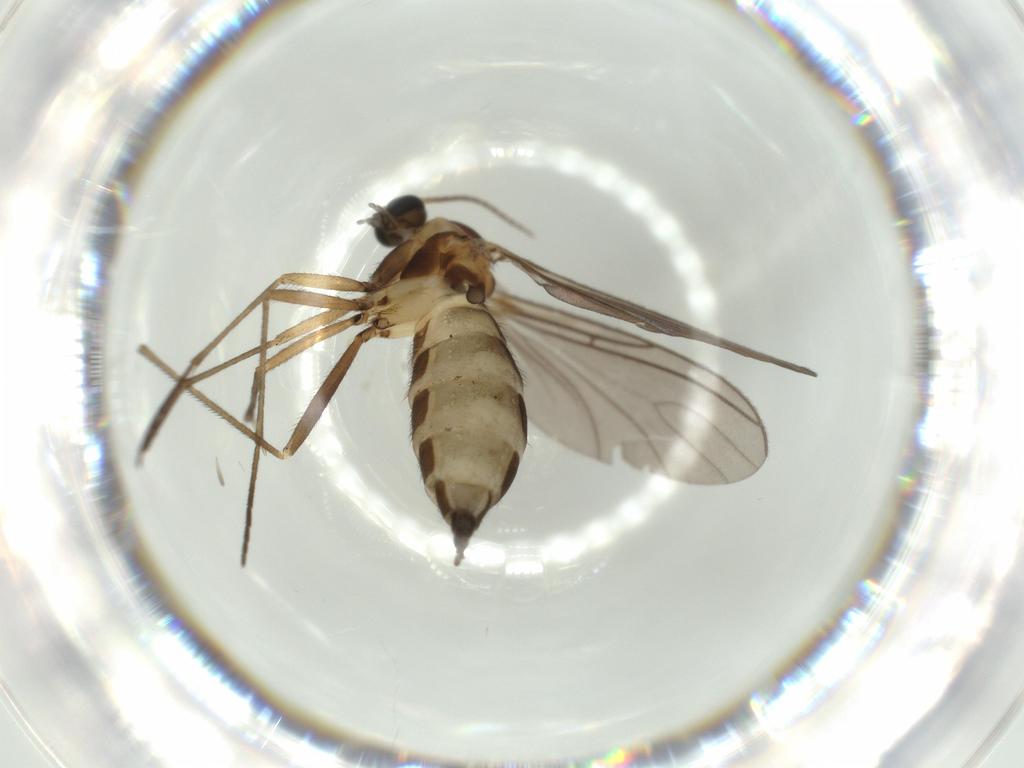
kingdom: Animalia
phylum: Arthropoda
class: Insecta
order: Diptera
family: Sciaridae
